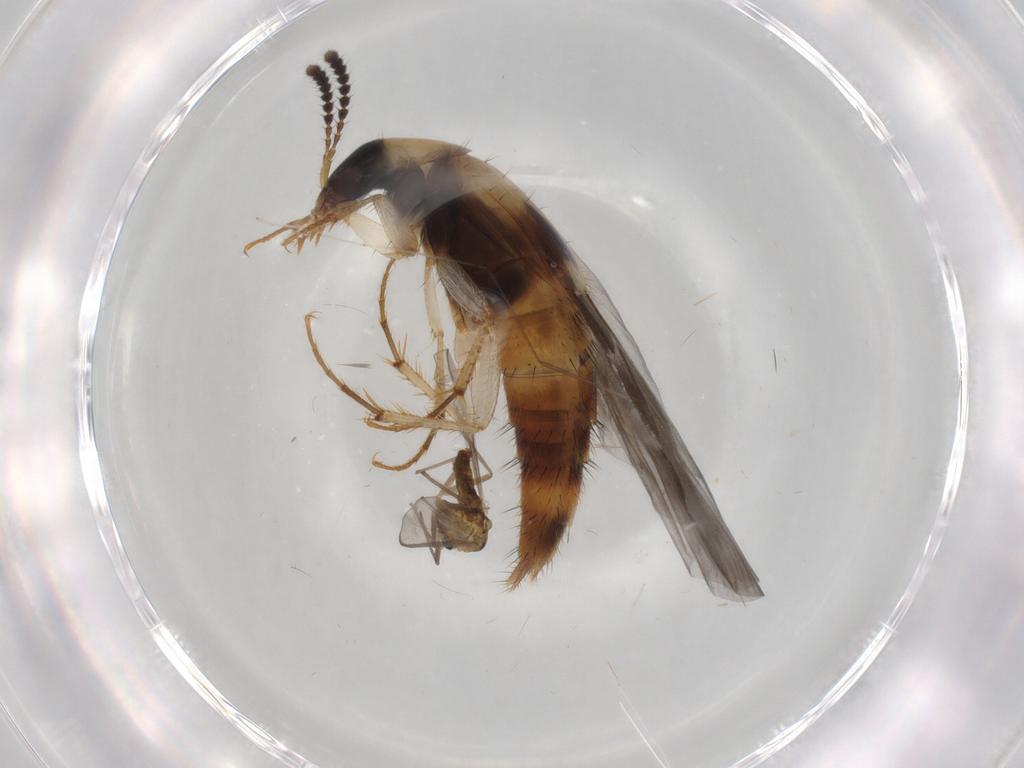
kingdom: Animalia
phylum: Arthropoda
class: Insecta
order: Diptera
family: Chironomidae
